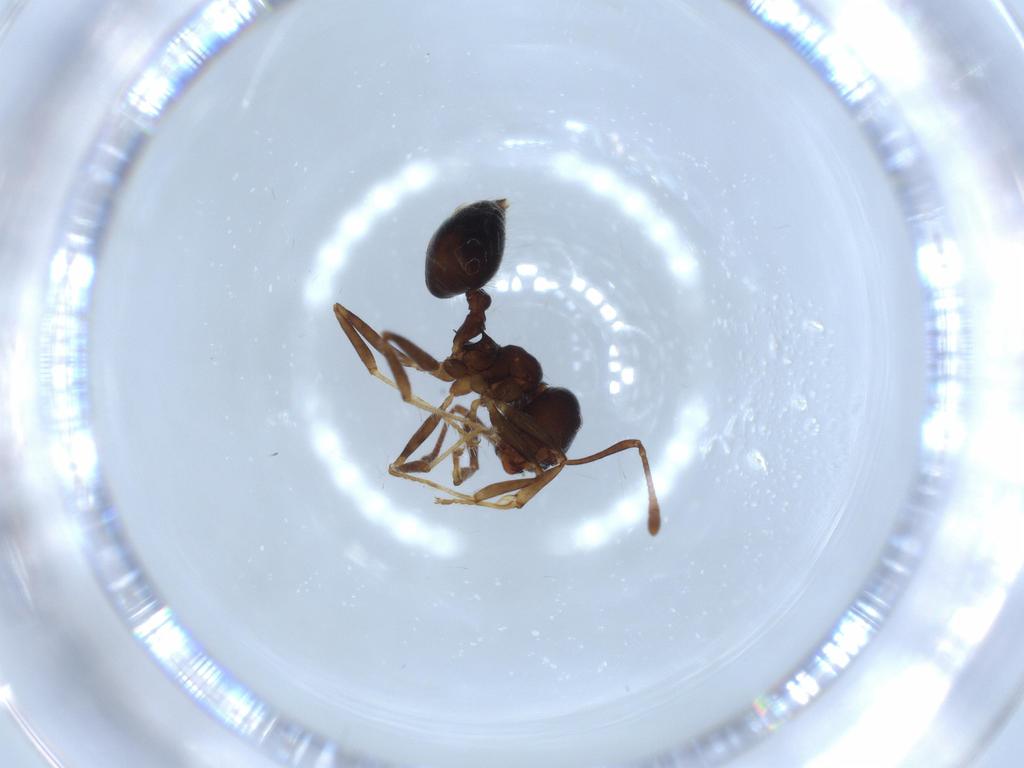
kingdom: Animalia
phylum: Arthropoda
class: Insecta
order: Hymenoptera
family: Formicidae
